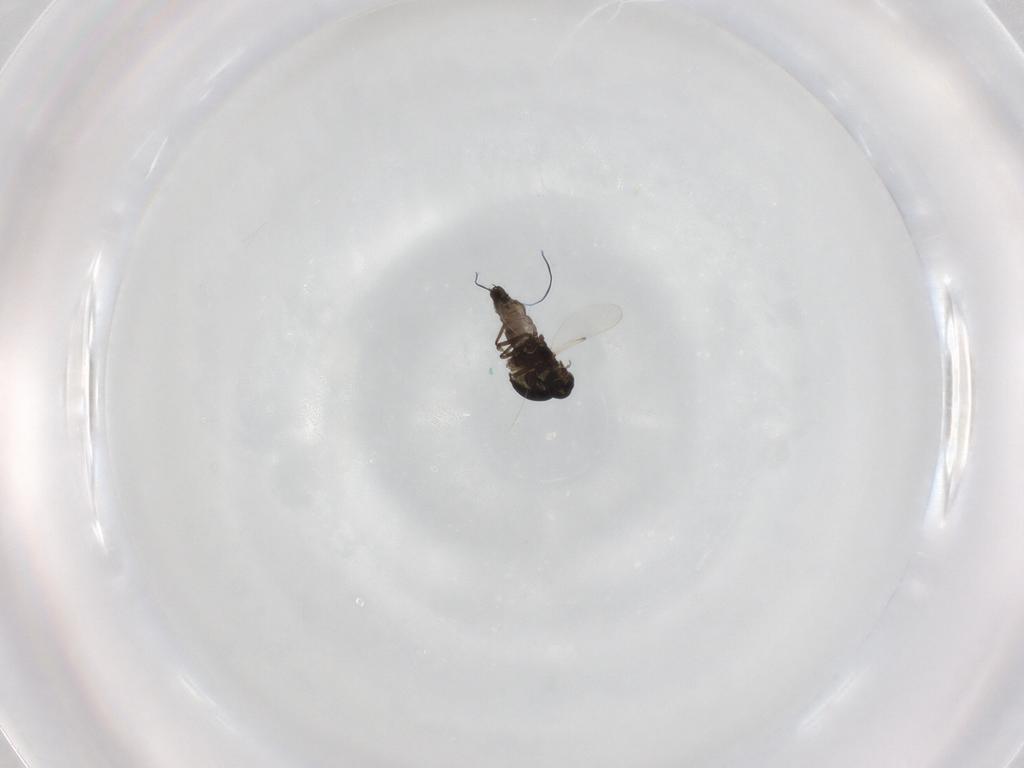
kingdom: Animalia
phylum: Arthropoda
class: Insecta
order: Diptera
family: Ceratopogonidae
